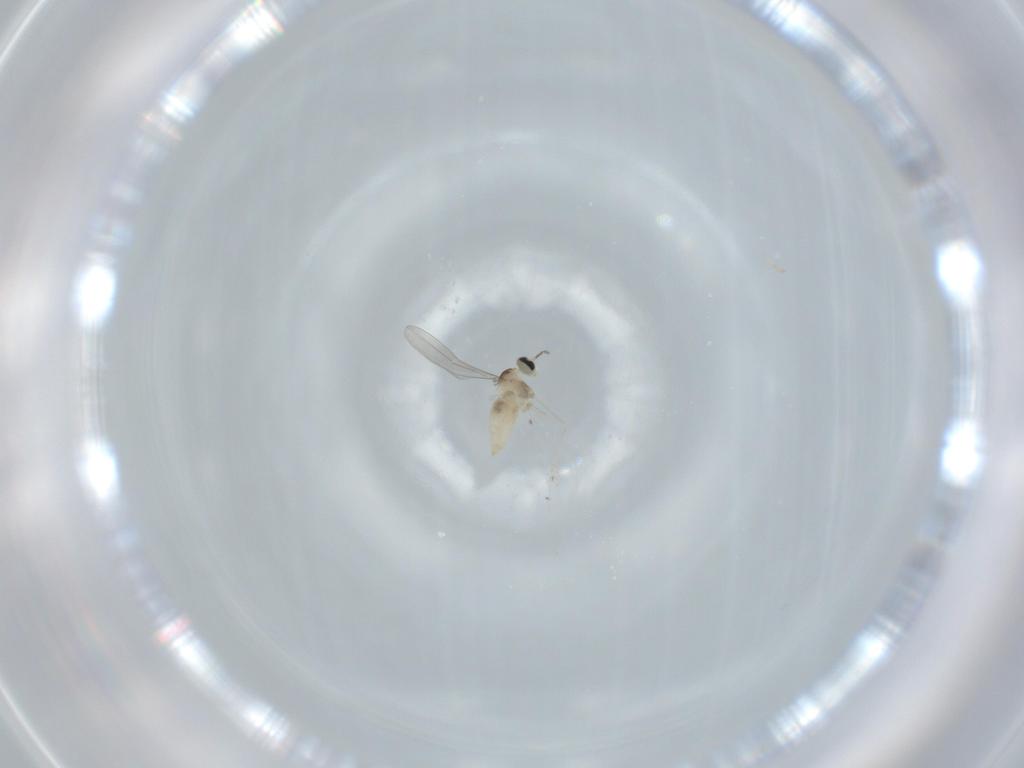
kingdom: Animalia
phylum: Arthropoda
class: Insecta
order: Diptera
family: Cecidomyiidae
